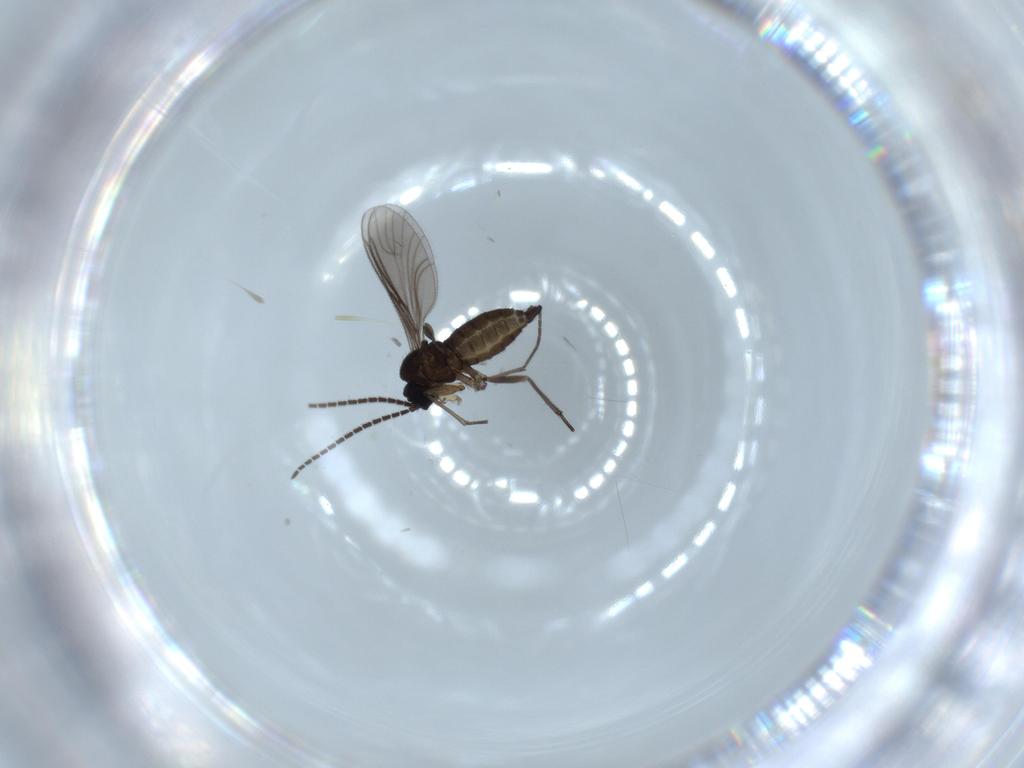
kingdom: Animalia
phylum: Arthropoda
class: Insecta
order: Diptera
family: Sciaridae
